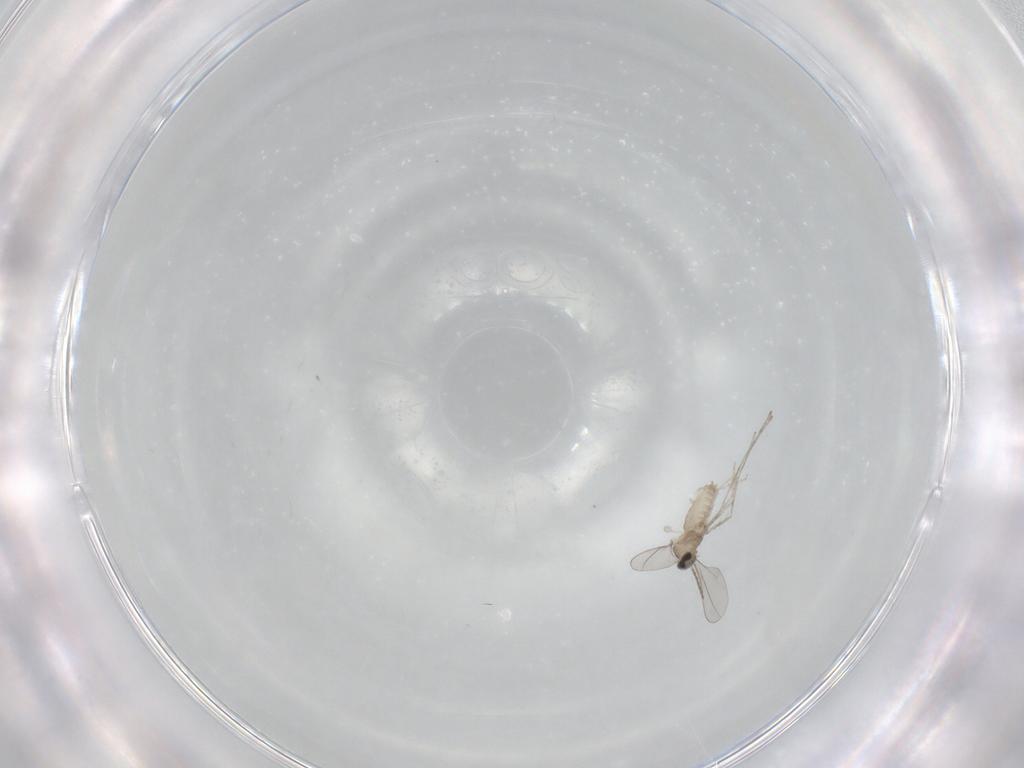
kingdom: Animalia
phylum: Arthropoda
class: Insecta
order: Diptera
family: Cecidomyiidae
